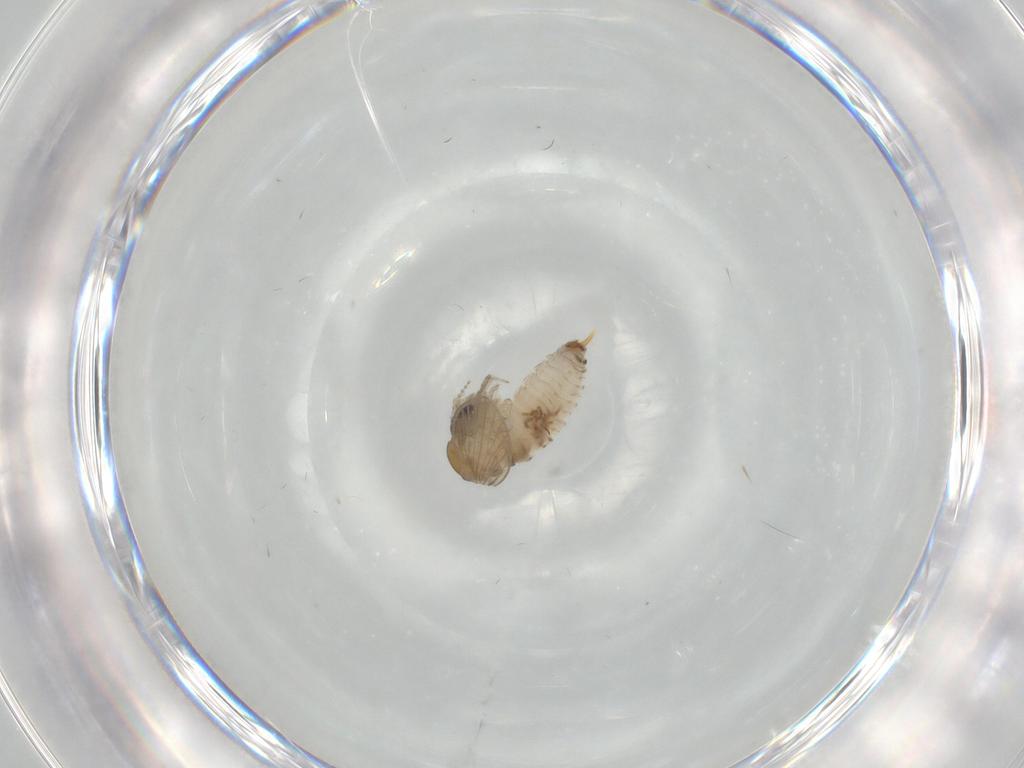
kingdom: Animalia
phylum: Arthropoda
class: Insecta
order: Diptera
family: Psychodidae
